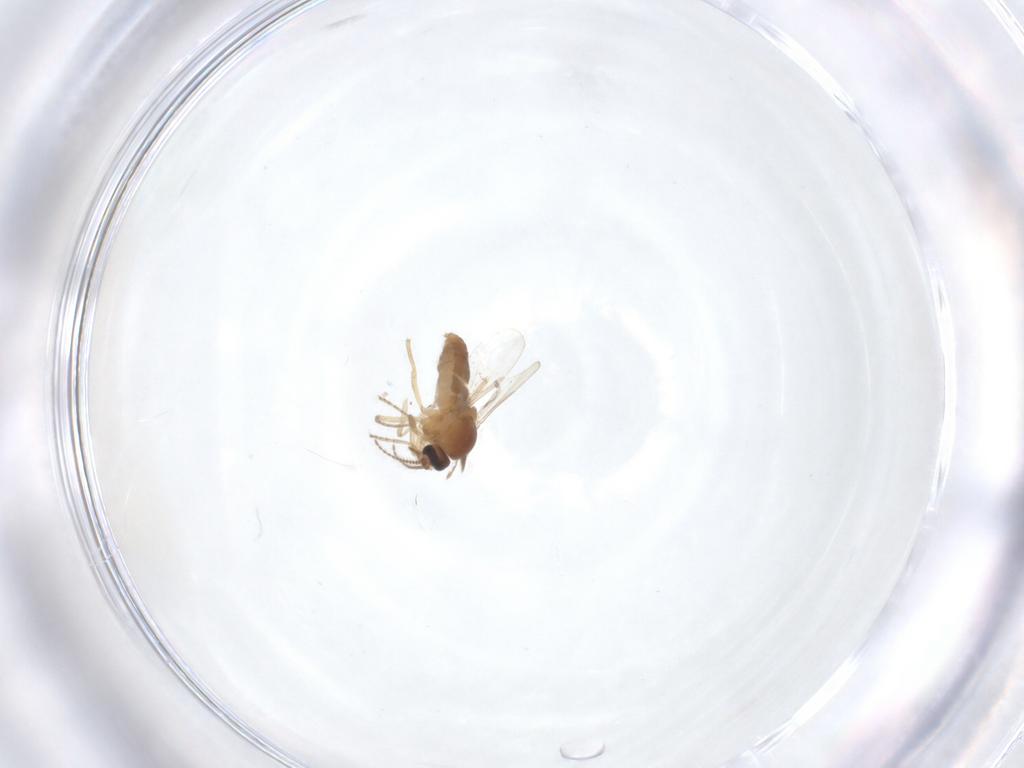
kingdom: Animalia
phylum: Arthropoda
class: Insecta
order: Diptera
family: Ceratopogonidae
